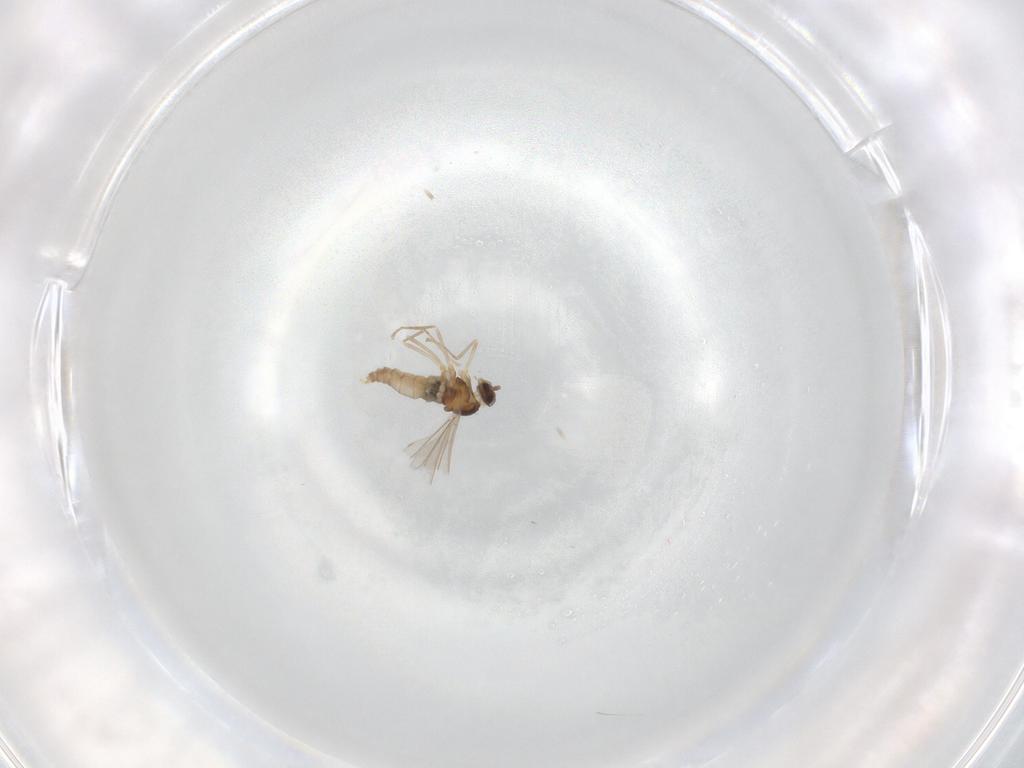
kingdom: Animalia
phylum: Arthropoda
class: Insecta
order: Diptera
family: Cecidomyiidae
